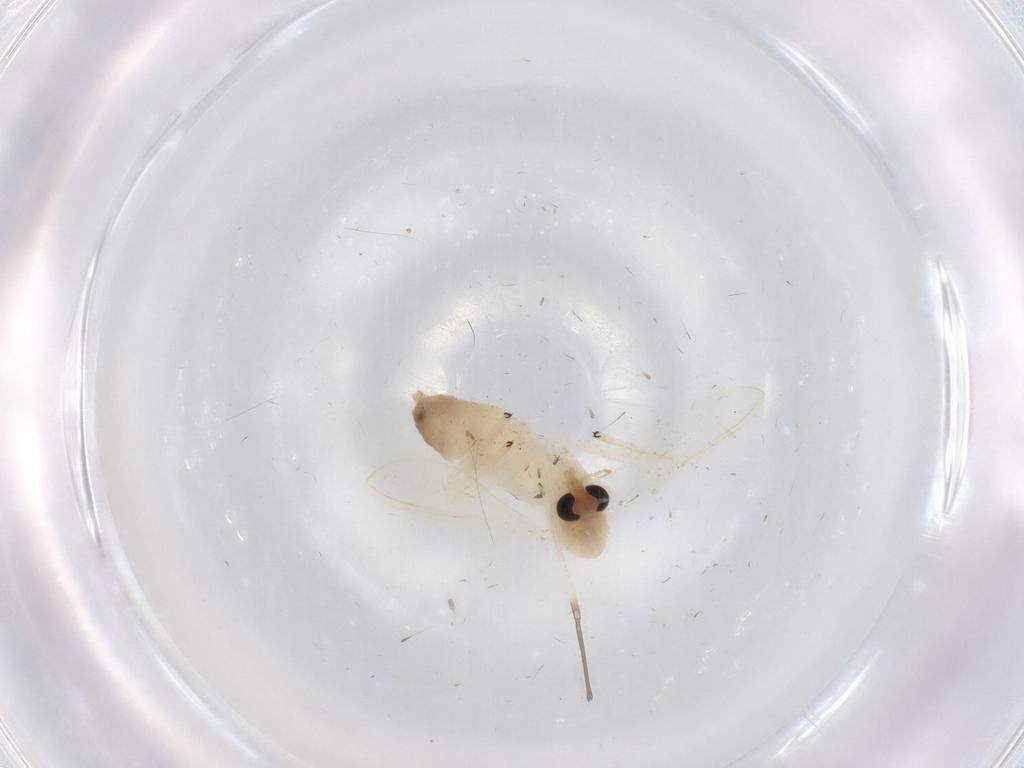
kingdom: Animalia
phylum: Arthropoda
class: Insecta
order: Diptera
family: Chironomidae
